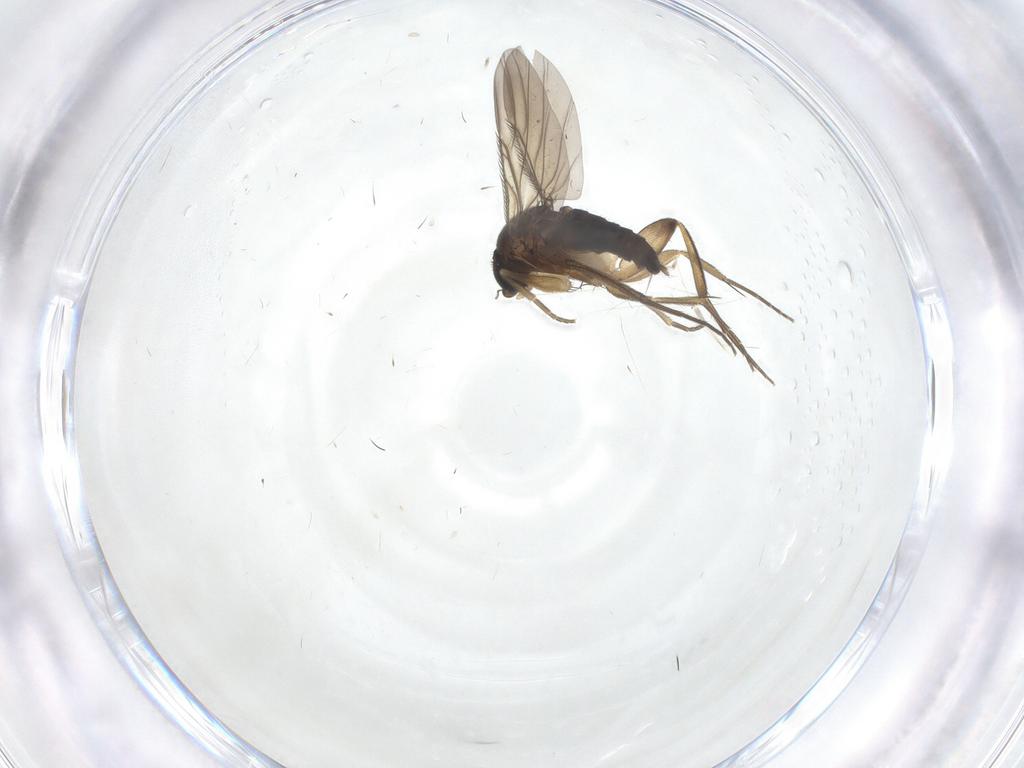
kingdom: Animalia
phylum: Arthropoda
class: Insecta
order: Diptera
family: Phoridae
